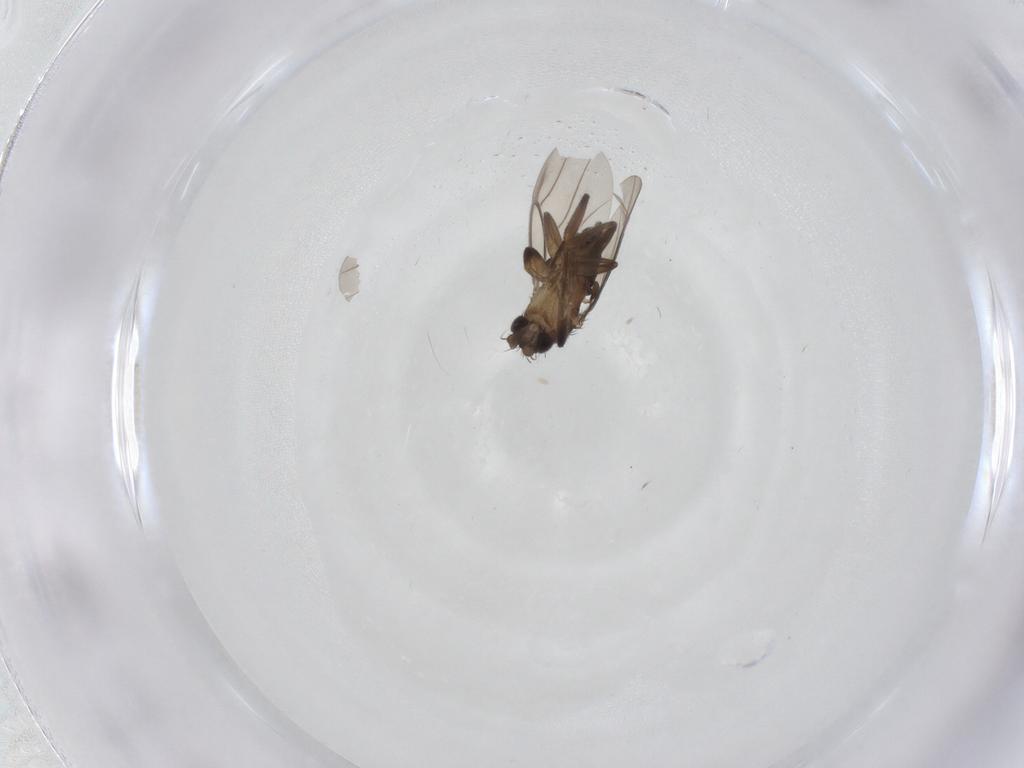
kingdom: Animalia
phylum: Arthropoda
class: Insecta
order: Diptera
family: Phoridae
